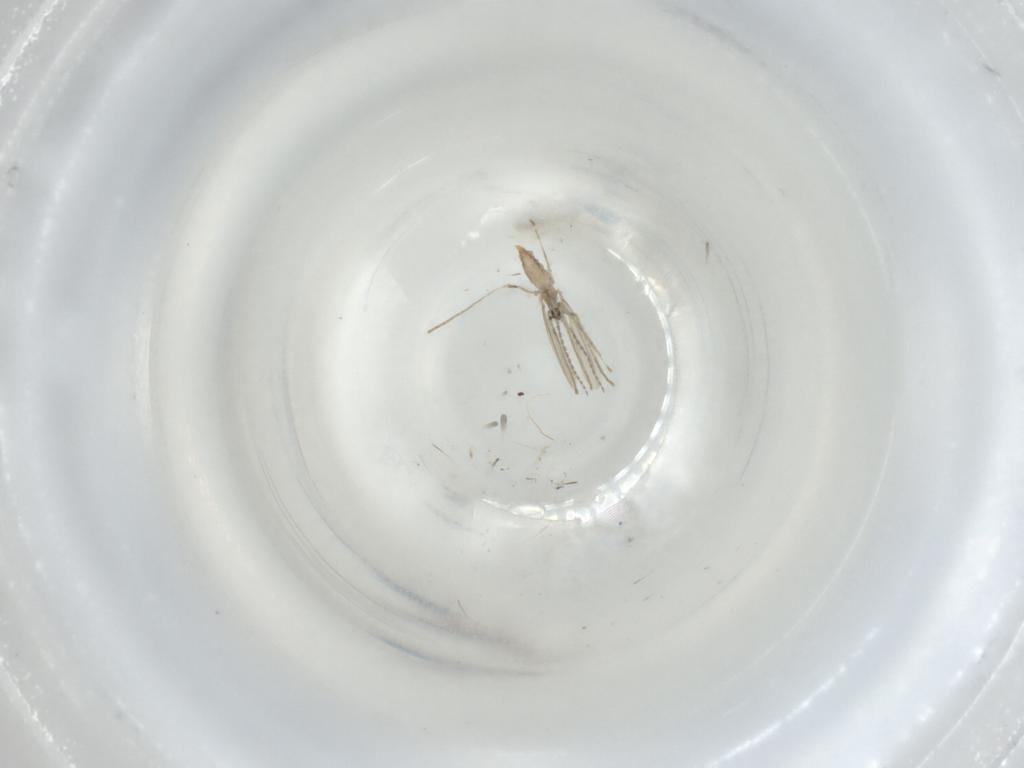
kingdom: Animalia
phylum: Arthropoda
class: Insecta
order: Diptera
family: Cecidomyiidae
